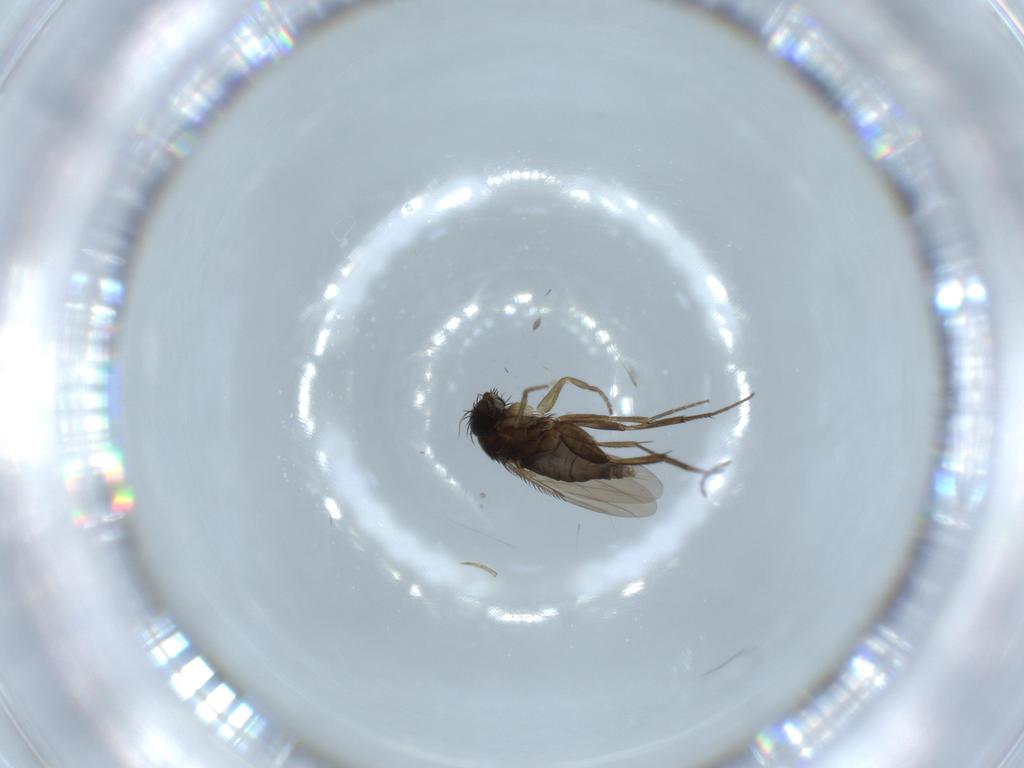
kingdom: Animalia
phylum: Arthropoda
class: Insecta
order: Diptera
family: Phoridae
